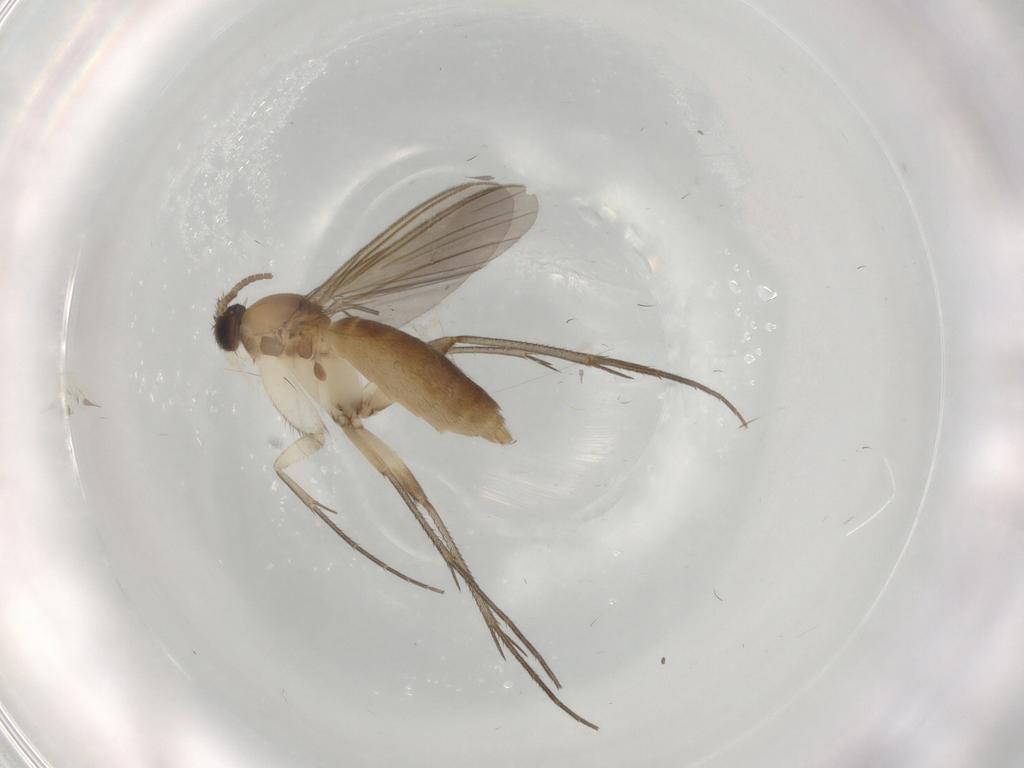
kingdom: Animalia
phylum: Arthropoda
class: Insecta
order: Diptera
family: Mycetophilidae
